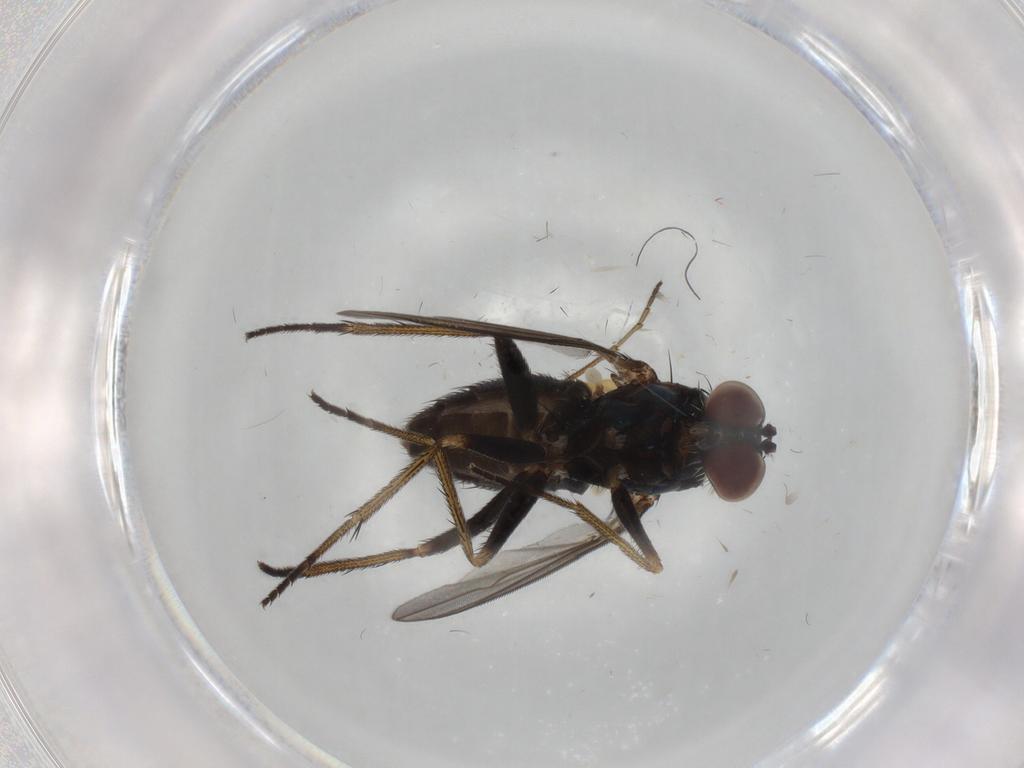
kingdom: Animalia
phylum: Arthropoda
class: Insecta
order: Diptera
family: Dolichopodidae
